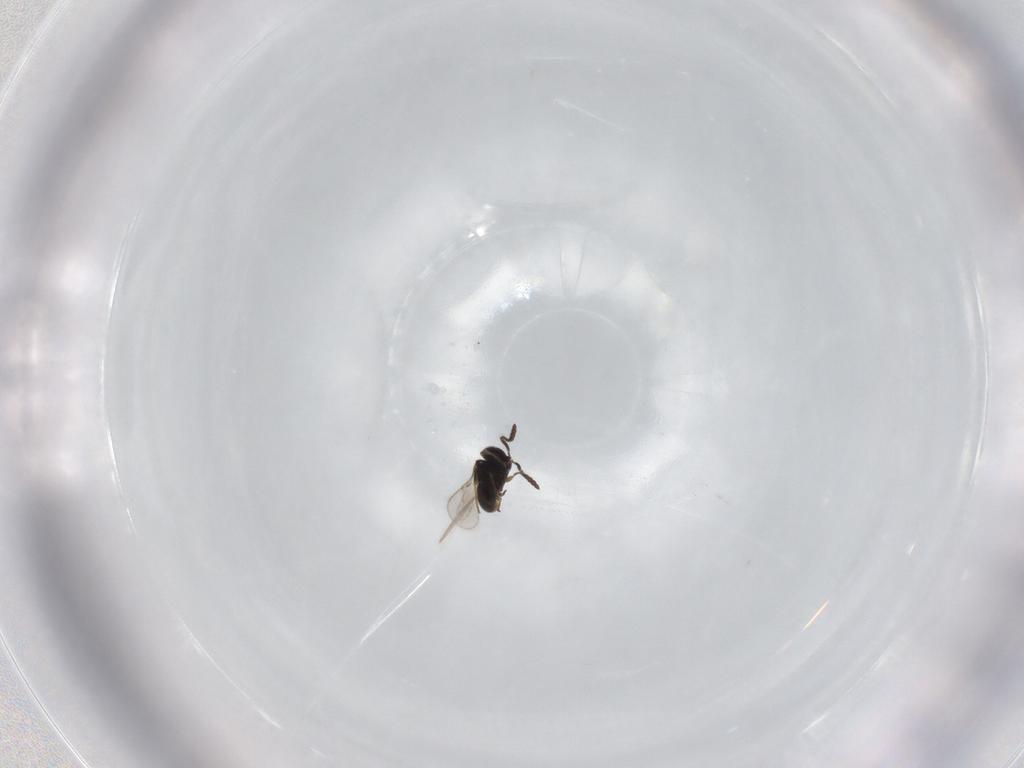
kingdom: Animalia
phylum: Arthropoda
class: Insecta
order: Hymenoptera
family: Scelionidae
